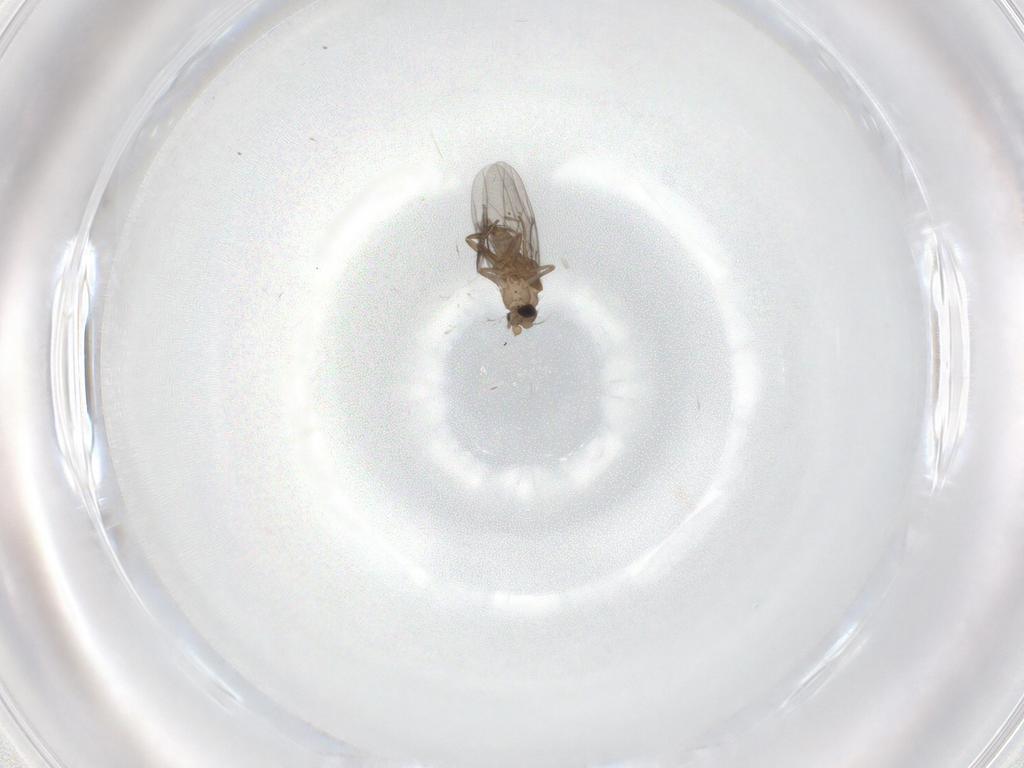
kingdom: Animalia
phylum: Arthropoda
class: Insecta
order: Diptera
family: Chironomidae
